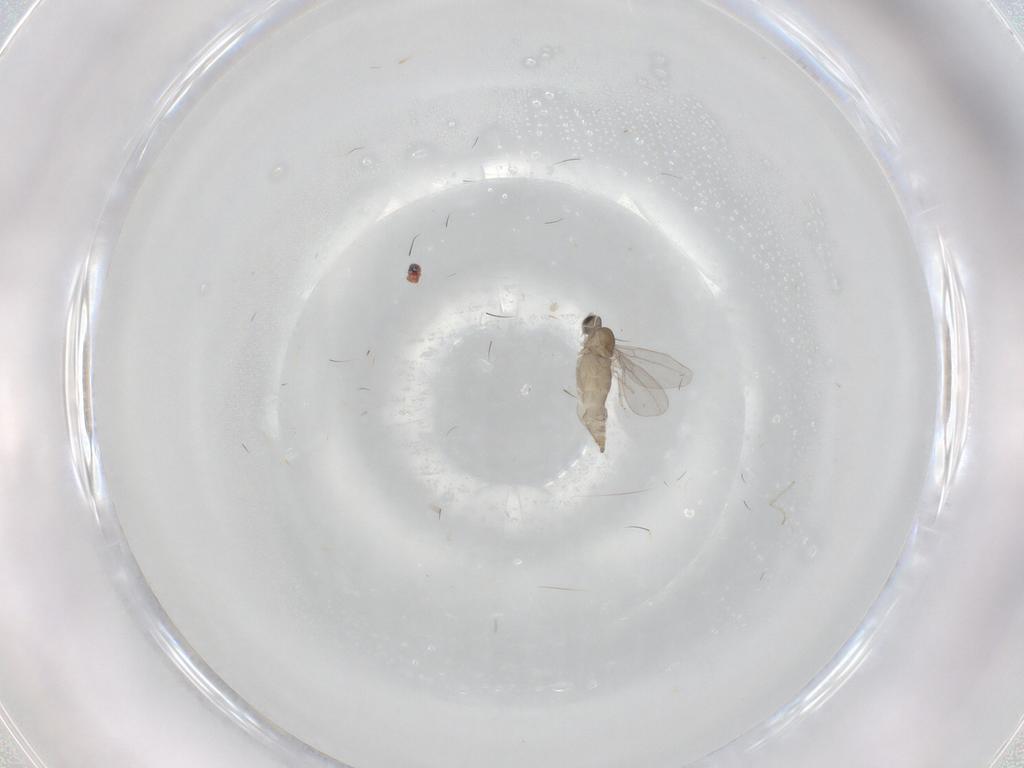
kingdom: Animalia
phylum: Arthropoda
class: Insecta
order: Diptera
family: Cecidomyiidae
